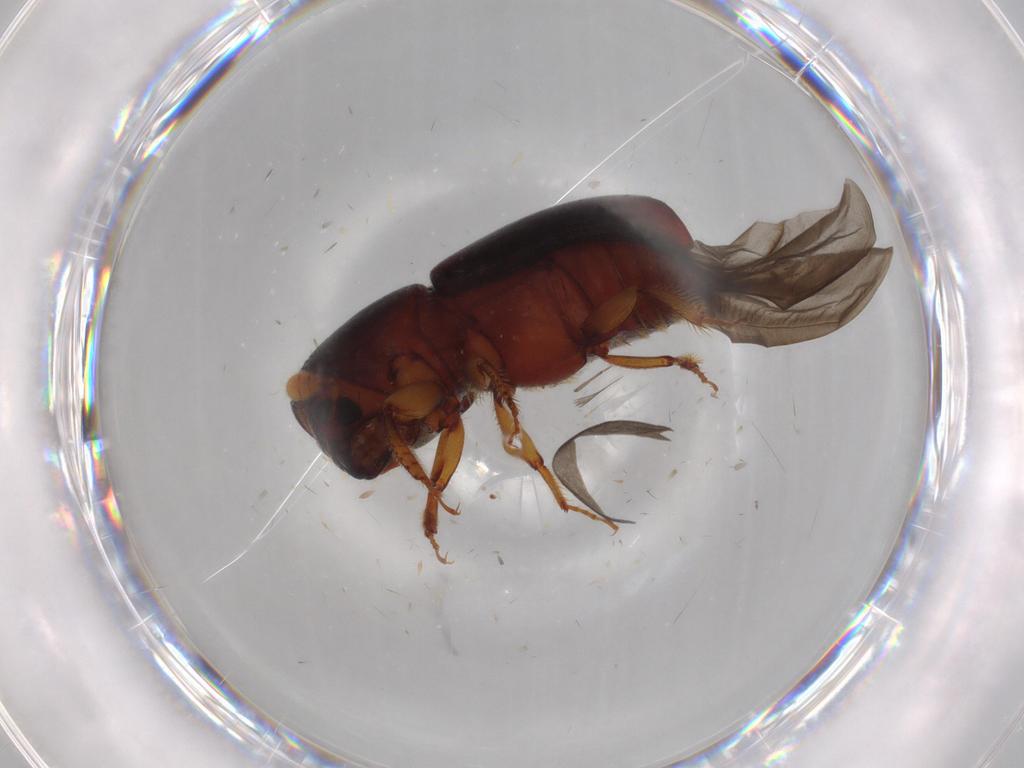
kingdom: Animalia
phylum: Arthropoda
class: Insecta
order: Coleoptera
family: Curculionidae
